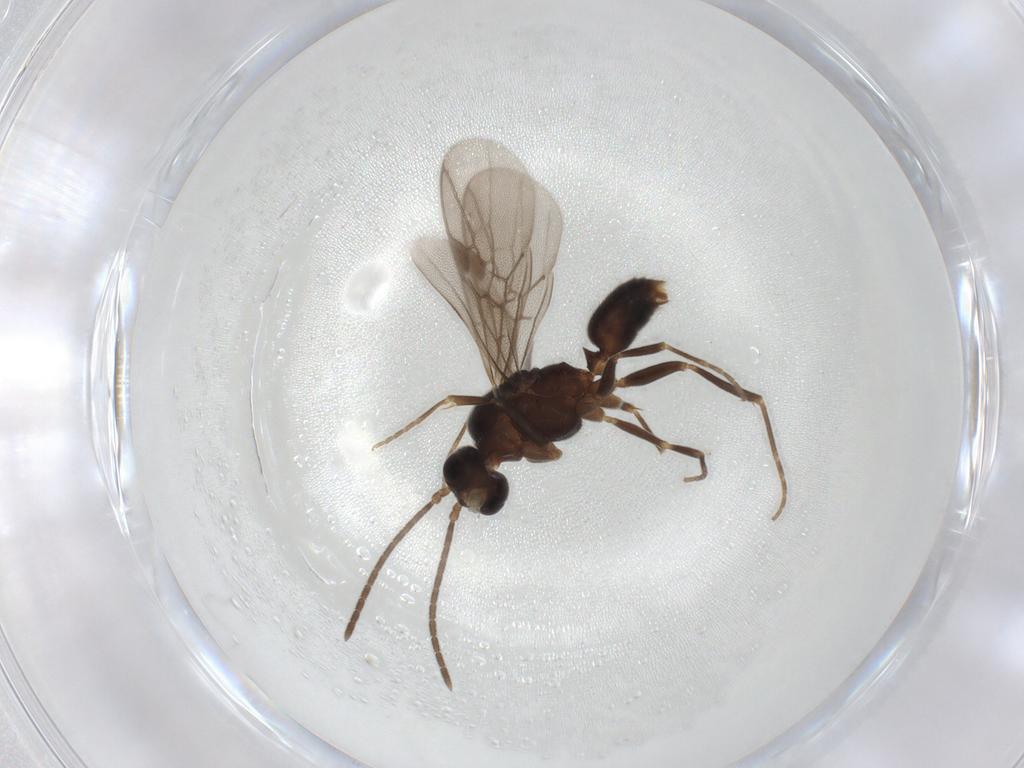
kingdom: Animalia
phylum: Arthropoda
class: Insecta
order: Hymenoptera
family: Formicidae
